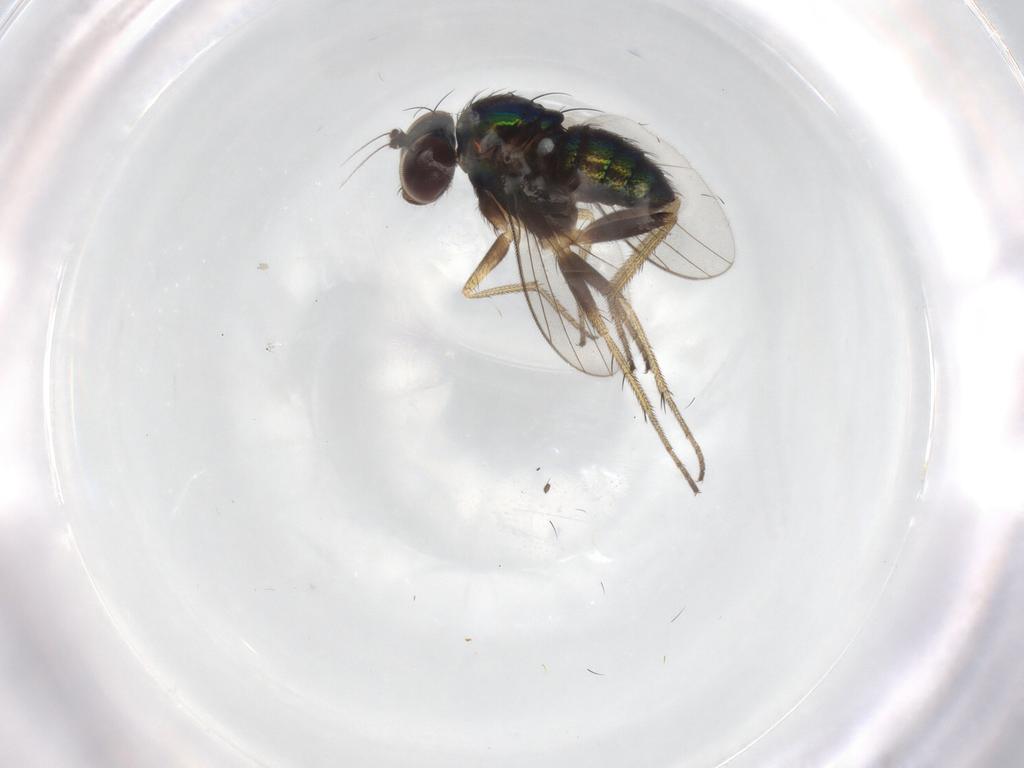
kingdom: Animalia
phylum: Arthropoda
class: Insecta
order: Diptera
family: Dolichopodidae
